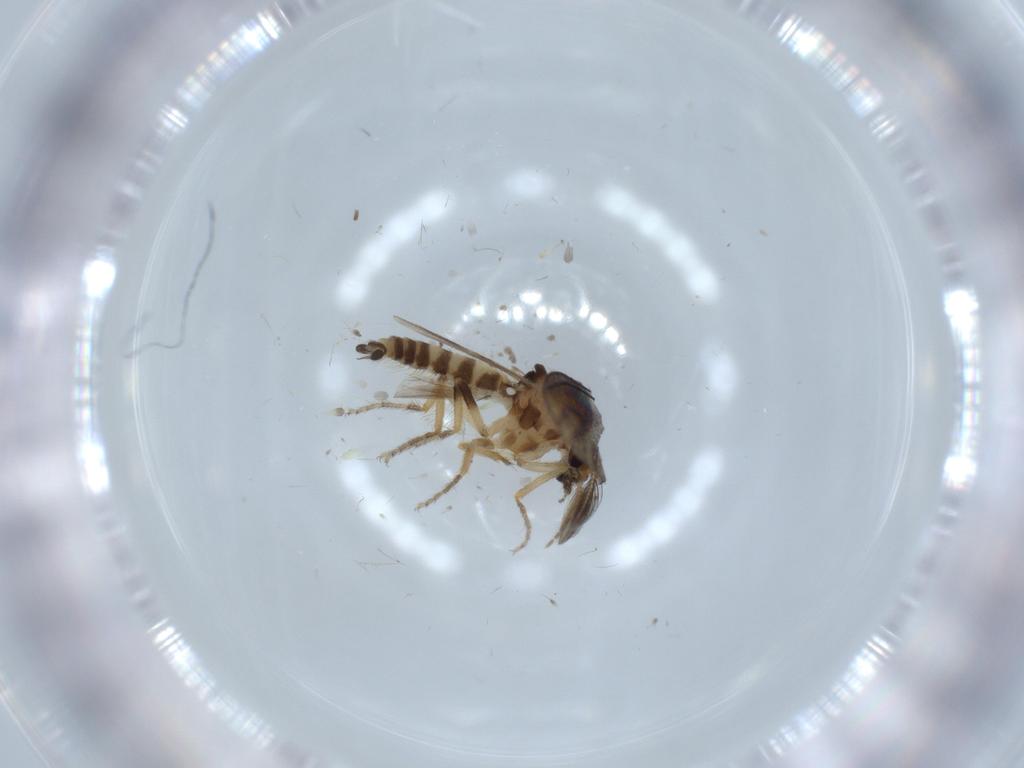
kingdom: Animalia
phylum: Arthropoda
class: Insecta
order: Diptera
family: Ceratopogonidae
